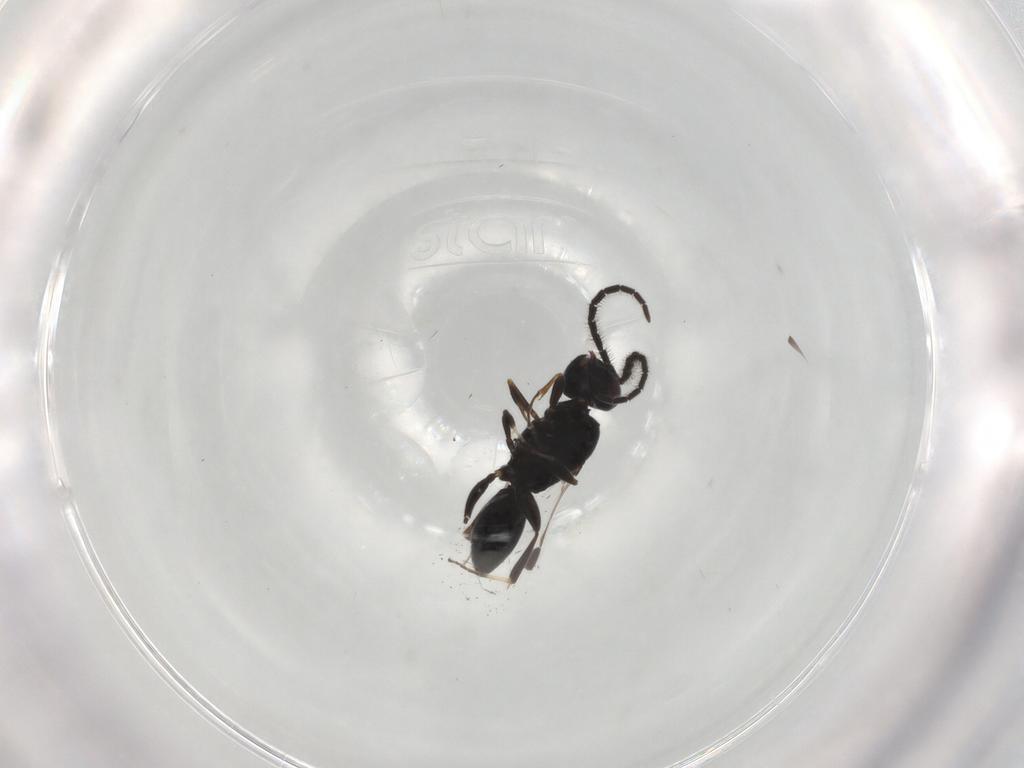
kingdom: Animalia
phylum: Arthropoda
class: Insecta
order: Hymenoptera
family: Megaspilidae
